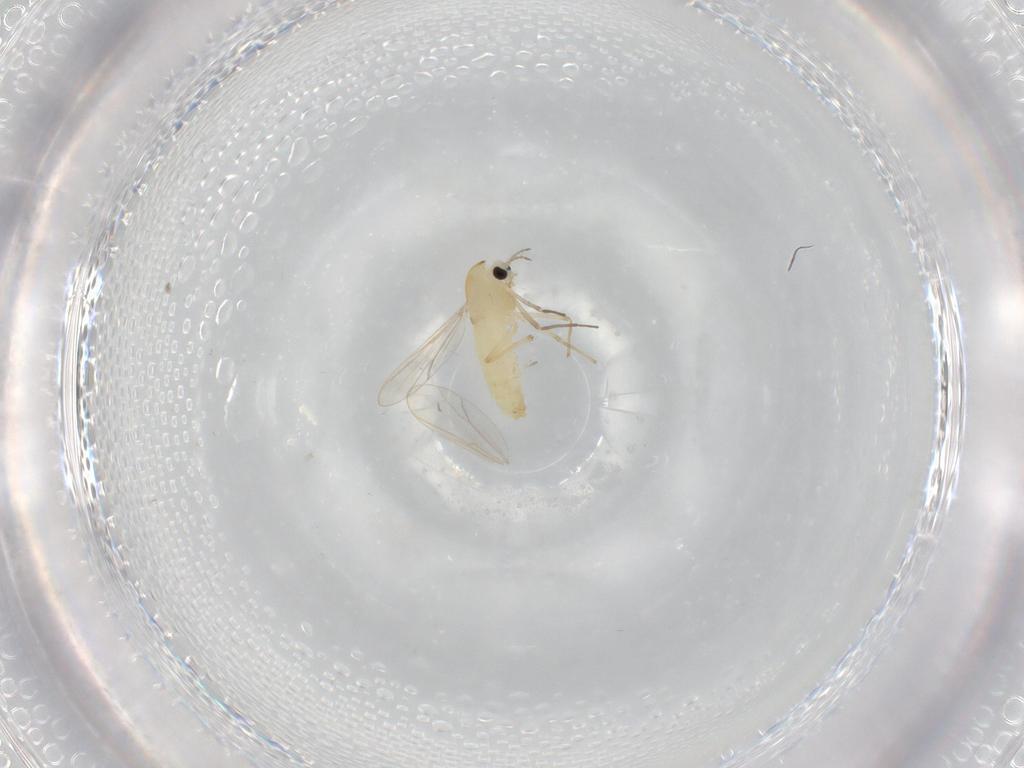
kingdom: Animalia
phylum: Arthropoda
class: Insecta
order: Diptera
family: Chironomidae
